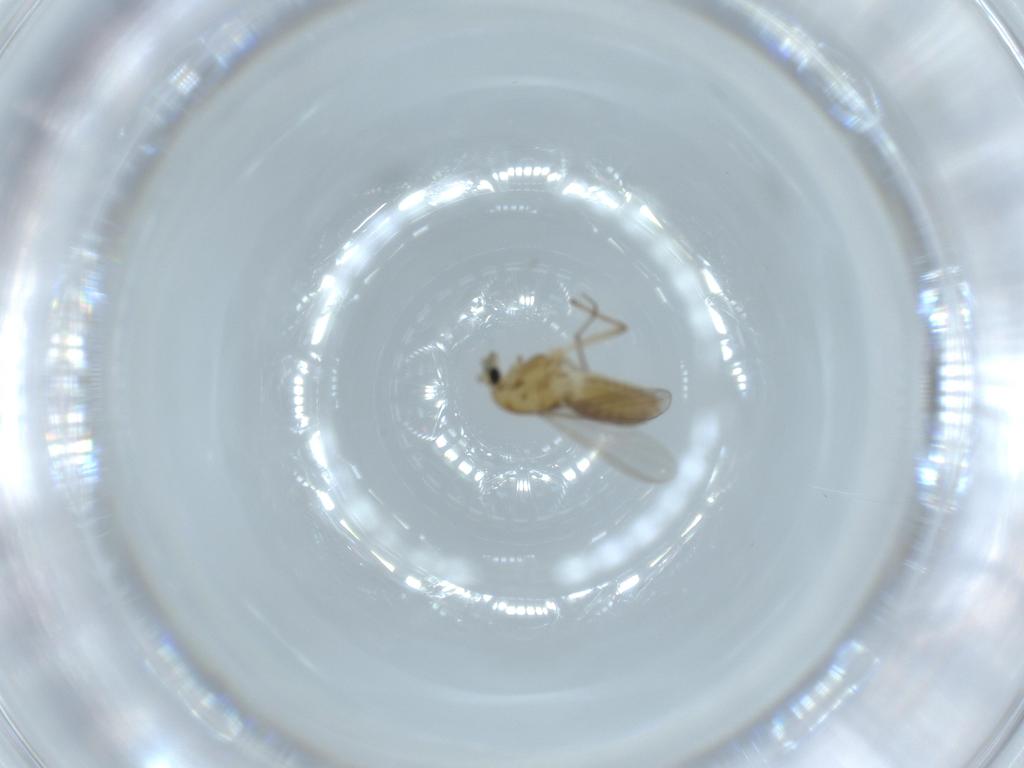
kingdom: Animalia
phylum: Arthropoda
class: Insecta
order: Diptera
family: Chironomidae
